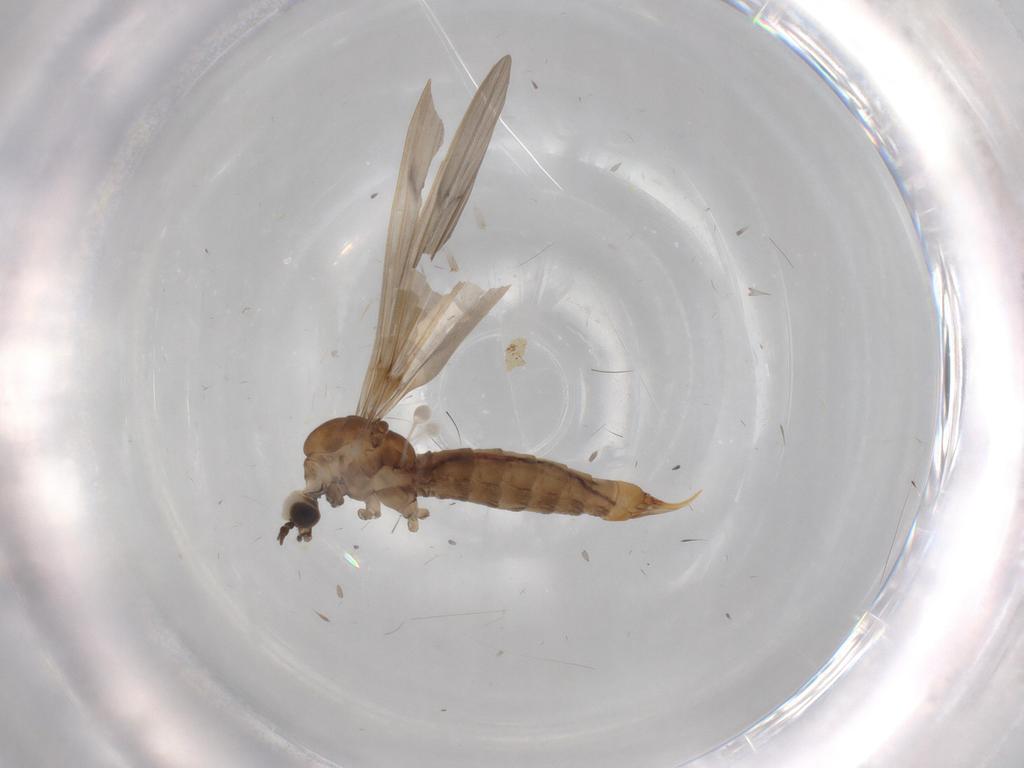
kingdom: Animalia
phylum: Arthropoda
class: Insecta
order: Diptera
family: Limoniidae
